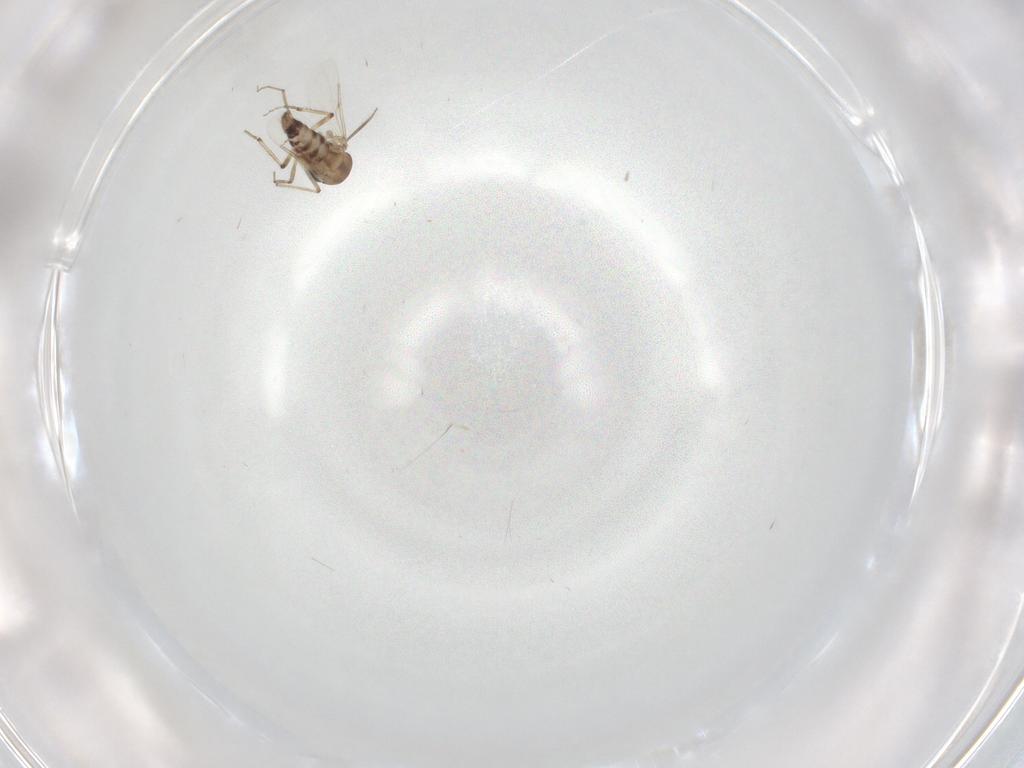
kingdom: Animalia
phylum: Arthropoda
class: Insecta
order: Diptera
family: Ceratopogonidae
